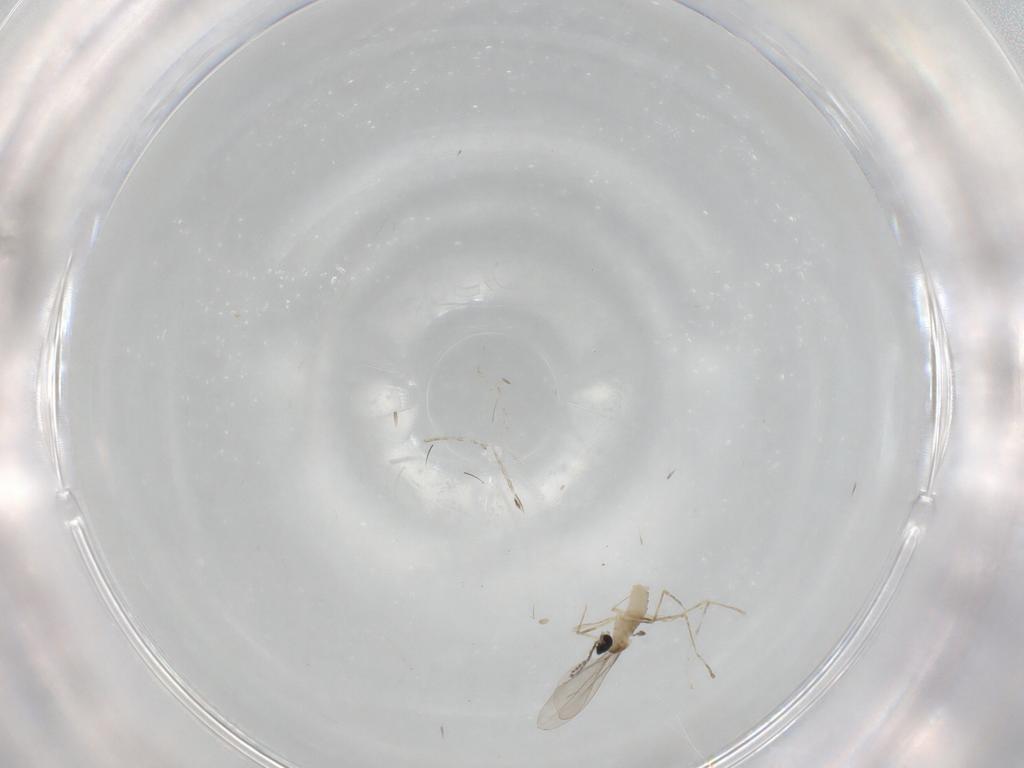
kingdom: Animalia
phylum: Arthropoda
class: Insecta
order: Diptera
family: Cecidomyiidae
